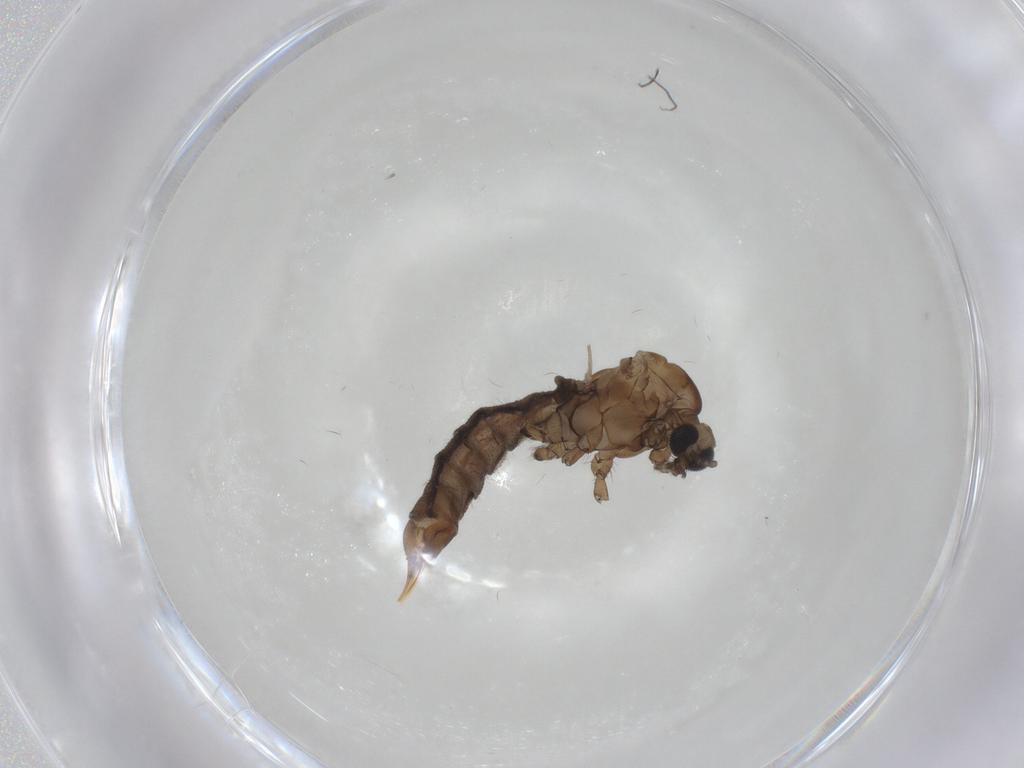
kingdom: Animalia
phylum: Arthropoda
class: Insecta
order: Diptera
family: Limoniidae
